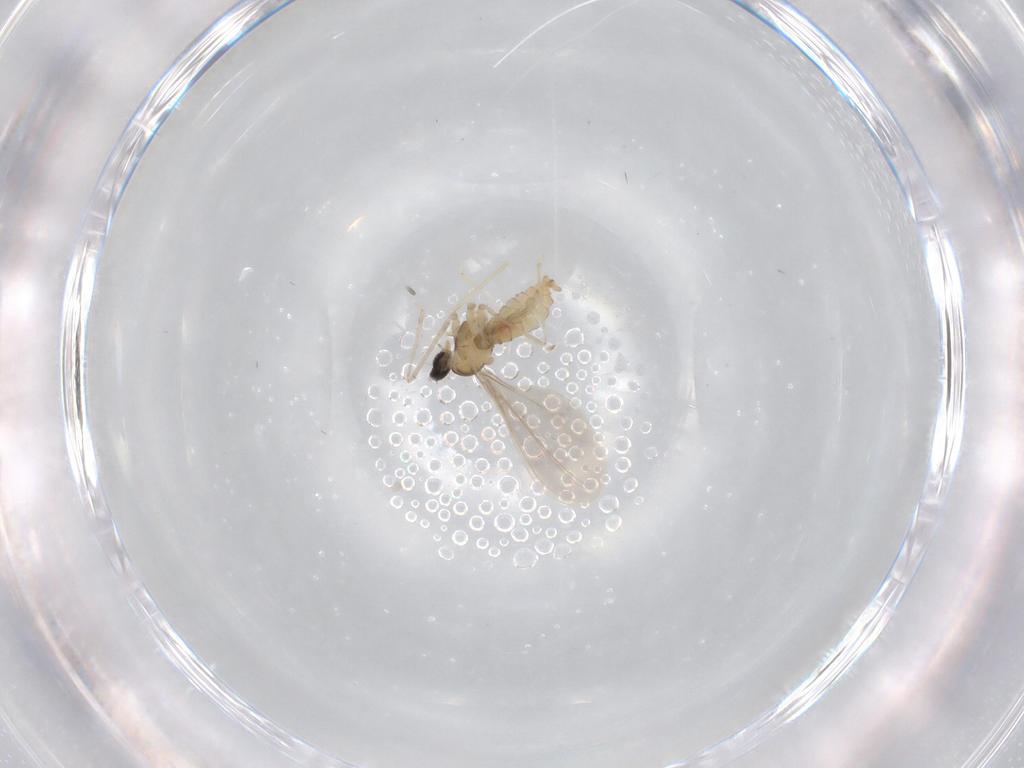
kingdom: Animalia
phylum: Arthropoda
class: Insecta
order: Diptera
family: Cecidomyiidae
